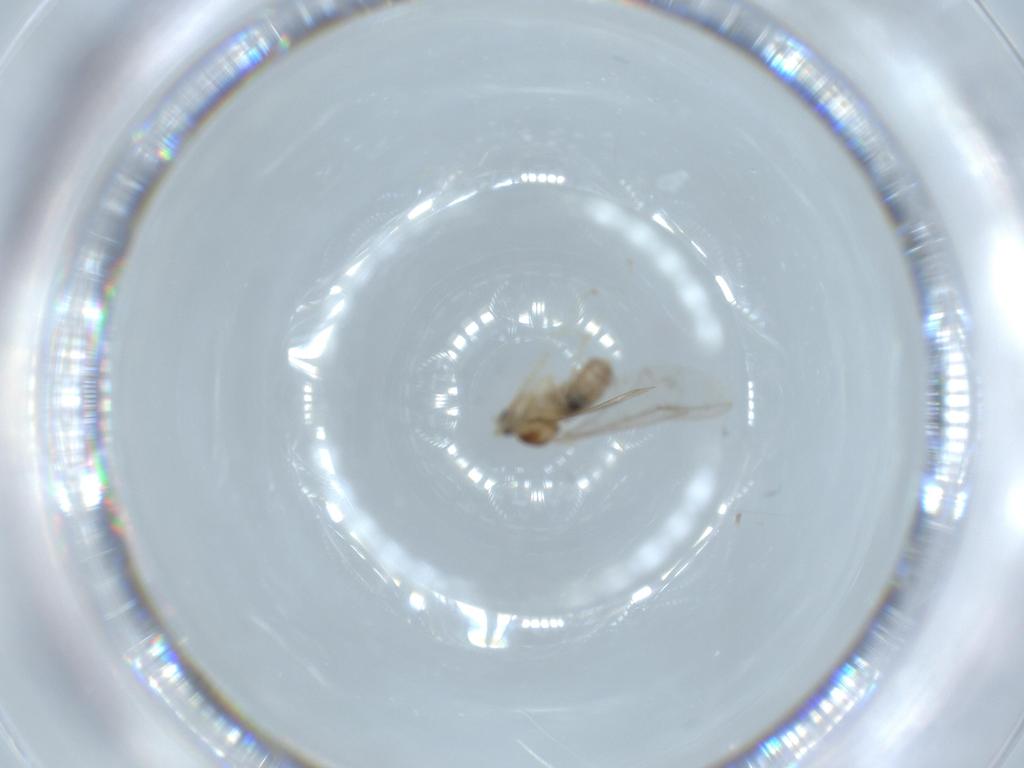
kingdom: Animalia
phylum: Arthropoda
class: Insecta
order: Diptera
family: Cecidomyiidae
